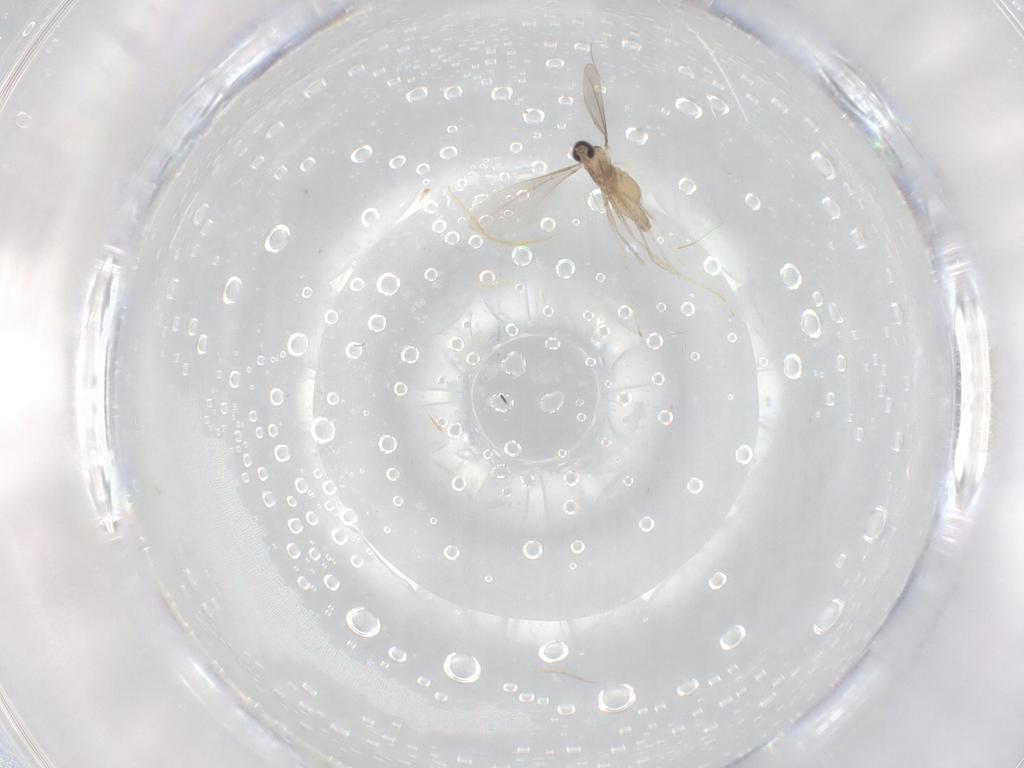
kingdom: Animalia
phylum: Arthropoda
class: Insecta
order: Diptera
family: Cecidomyiidae
